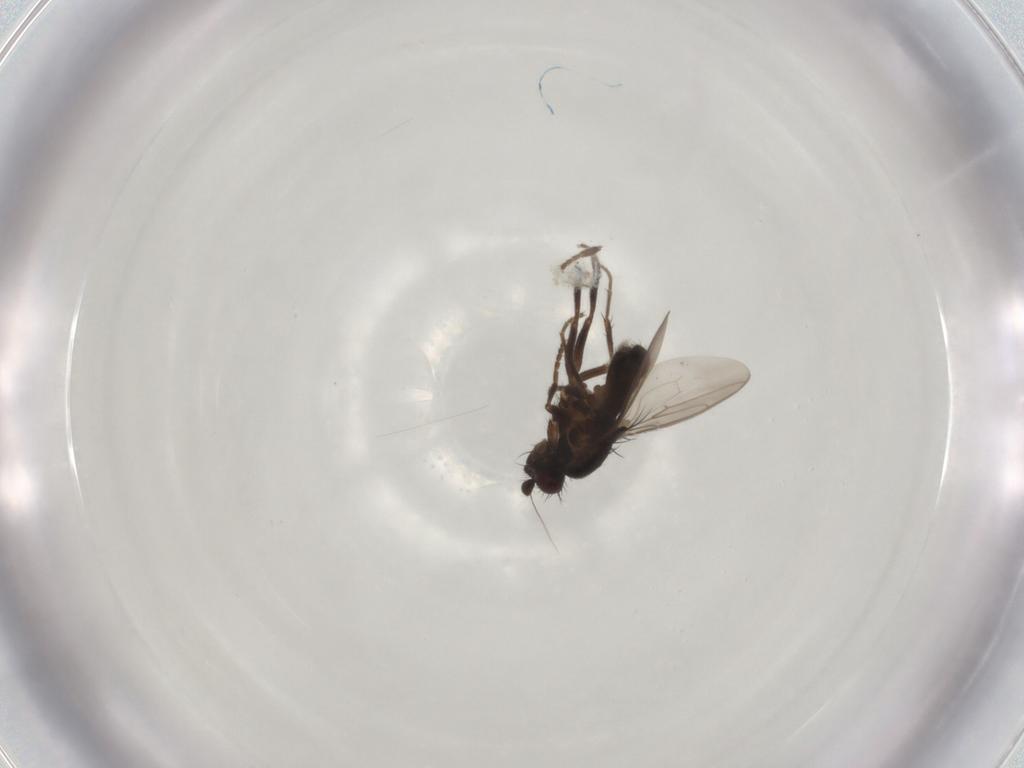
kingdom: Animalia
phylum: Arthropoda
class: Insecta
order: Diptera
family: Sphaeroceridae
